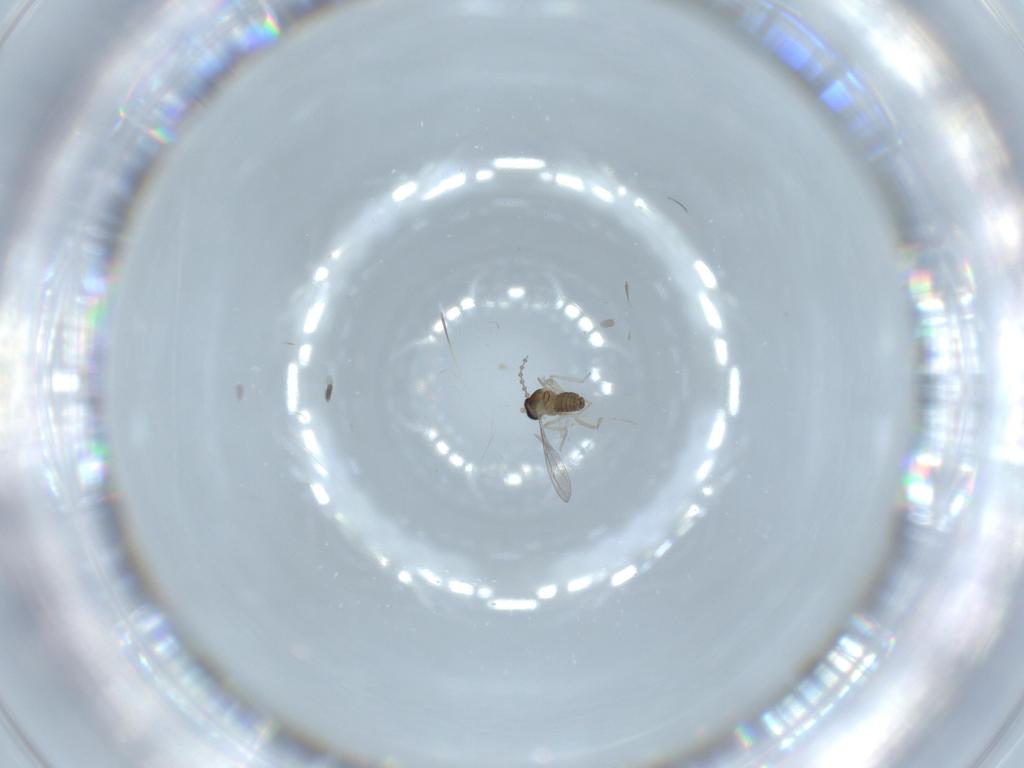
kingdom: Animalia
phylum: Arthropoda
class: Insecta
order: Diptera
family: Cecidomyiidae
